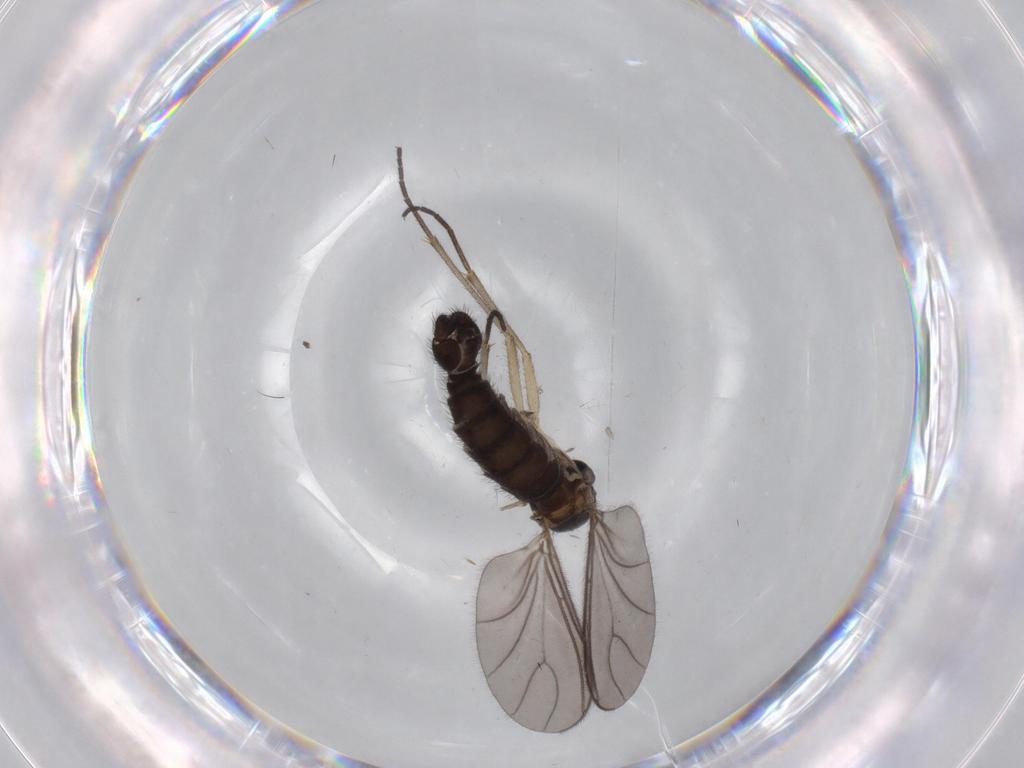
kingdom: Animalia
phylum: Arthropoda
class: Insecta
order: Diptera
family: Sciaridae
